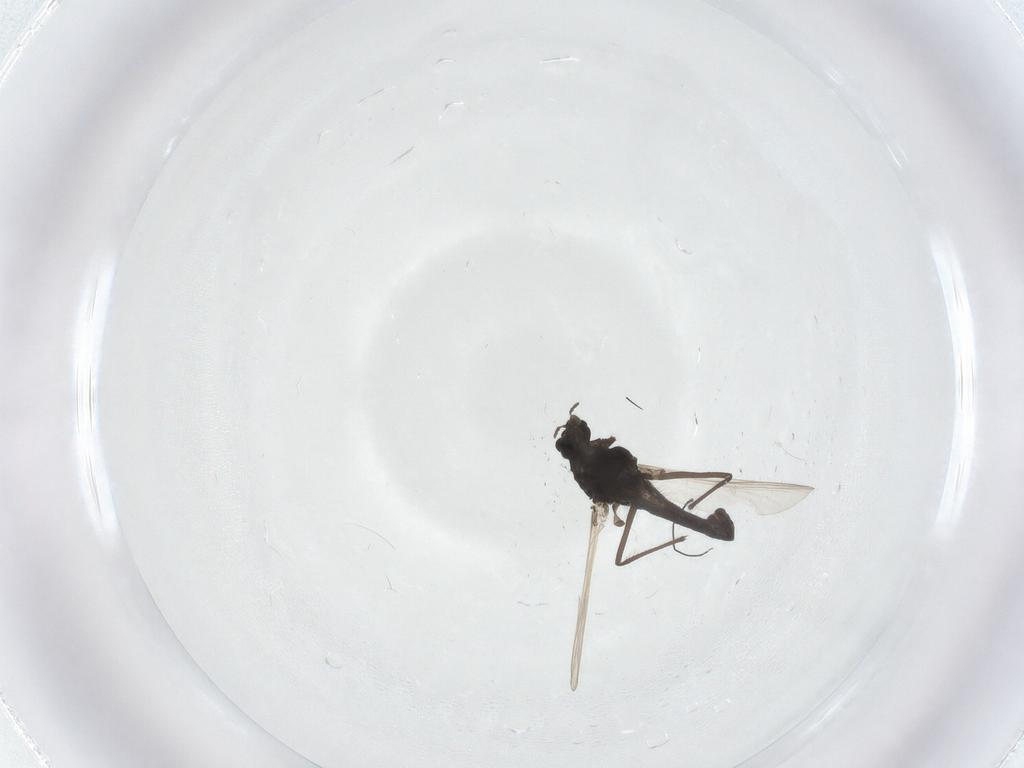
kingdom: Animalia
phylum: Arthropoda
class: Insecta
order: Diptera
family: Chironomidae
